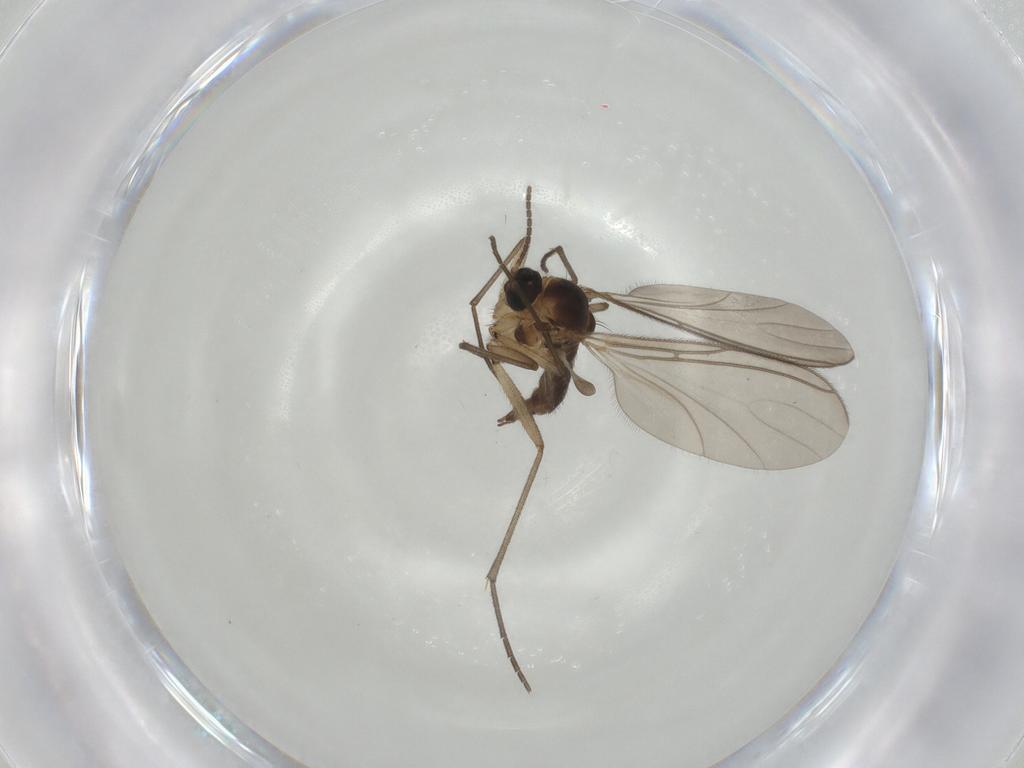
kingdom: Animalia
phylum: Arthropoda
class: Insecta
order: Diptera
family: Sciaridae
